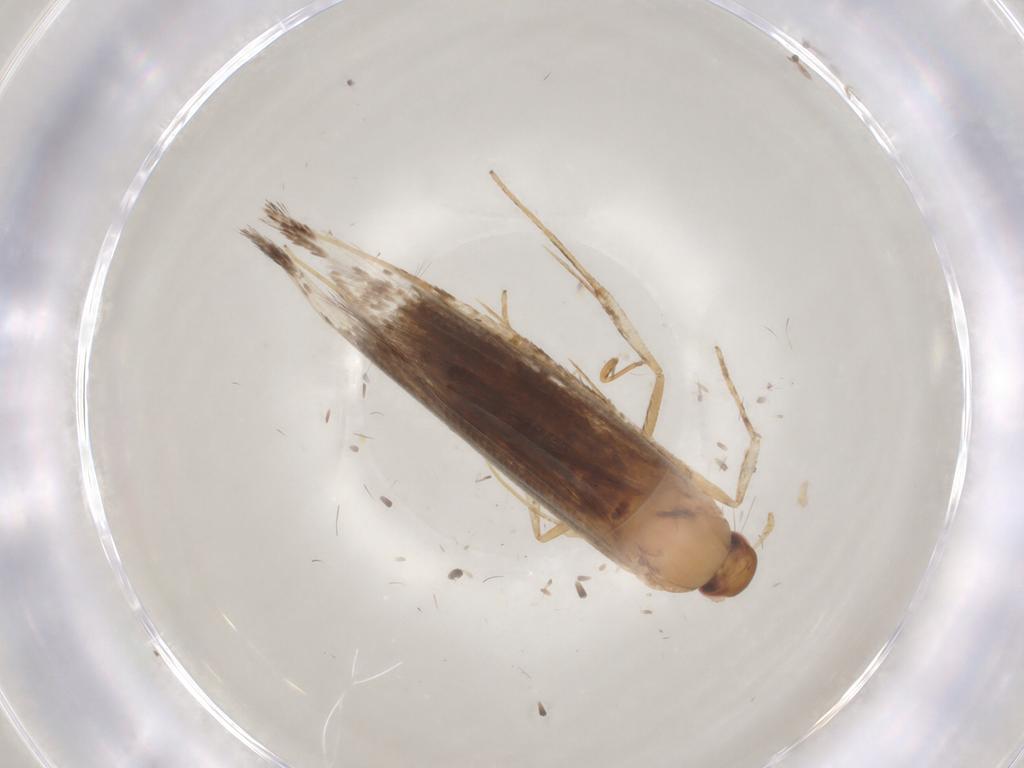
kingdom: Animalia
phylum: Arthropoda
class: Insecta
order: Lepidoptera
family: Cosmopterigidae
